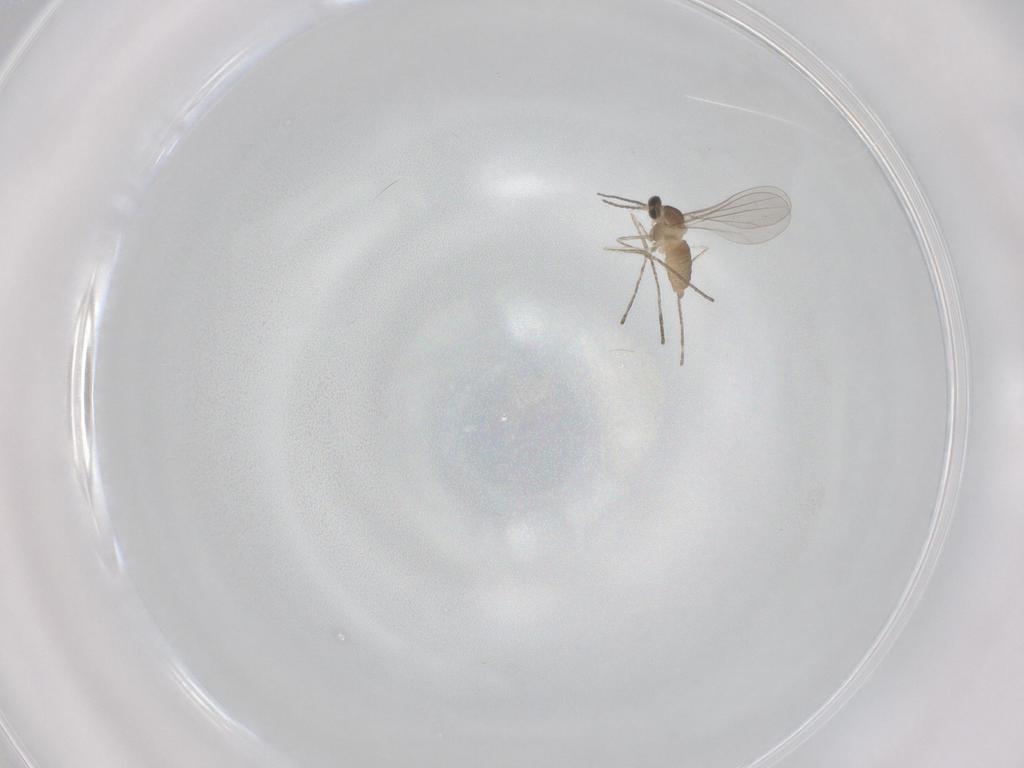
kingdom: Animalia
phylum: Arthropoda
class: Insecta
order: Diptera
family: Cecidomyiidae
